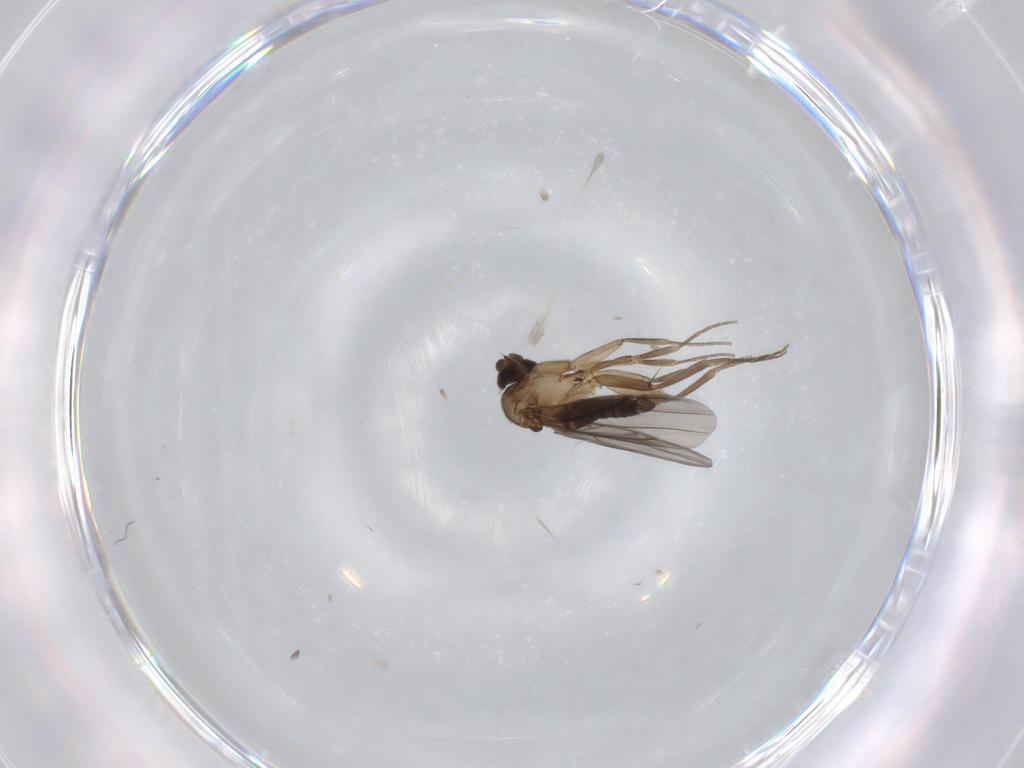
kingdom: Animalia
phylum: Arthropoda
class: Insecta
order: Diptera
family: Phoridae
